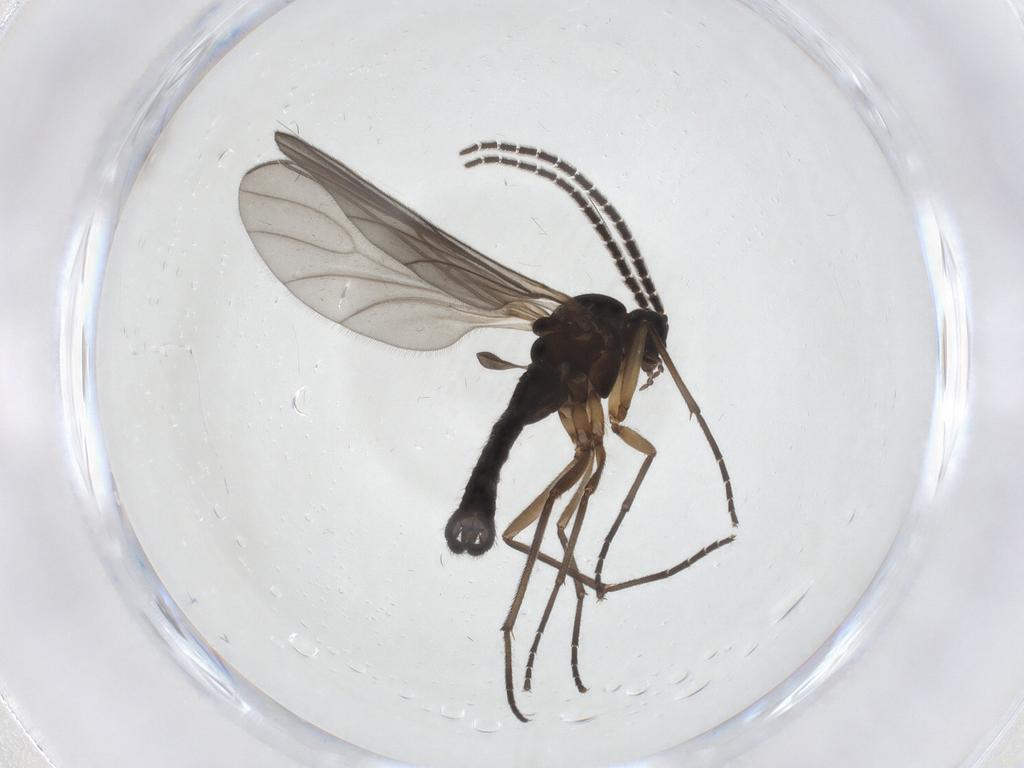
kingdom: Animalia
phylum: Arthropoda
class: Insecta
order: Diptera
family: Sciaridae
